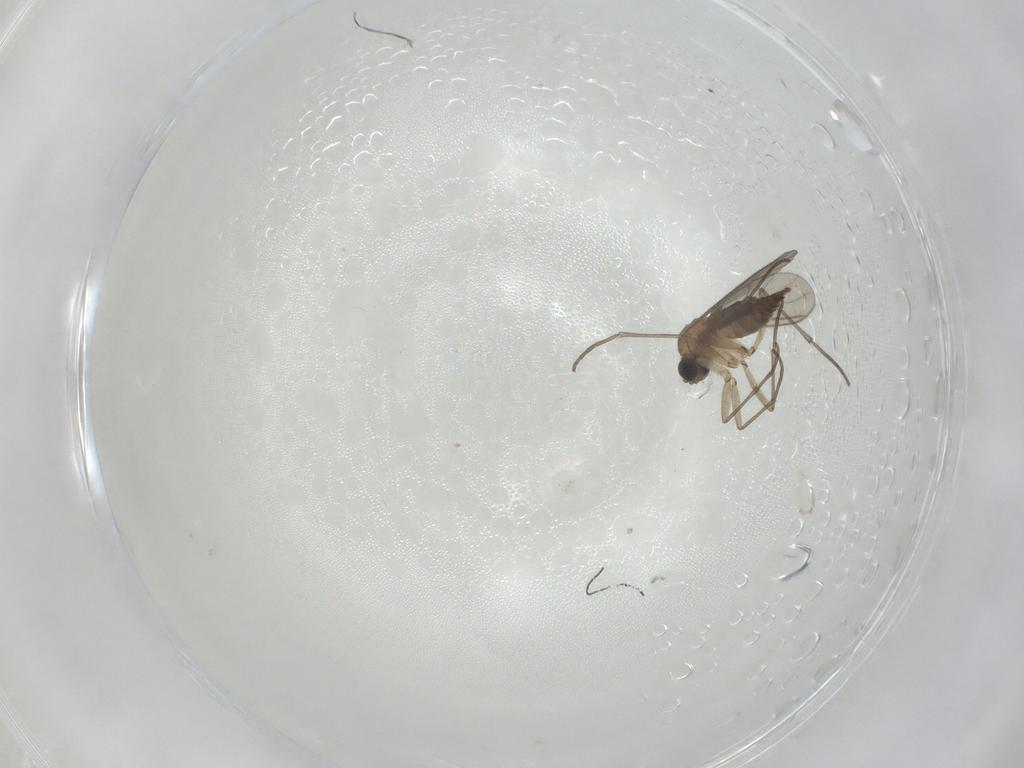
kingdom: Animalia
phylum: Arthropoda
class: Insecta
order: Diptera
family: Sciaridae
